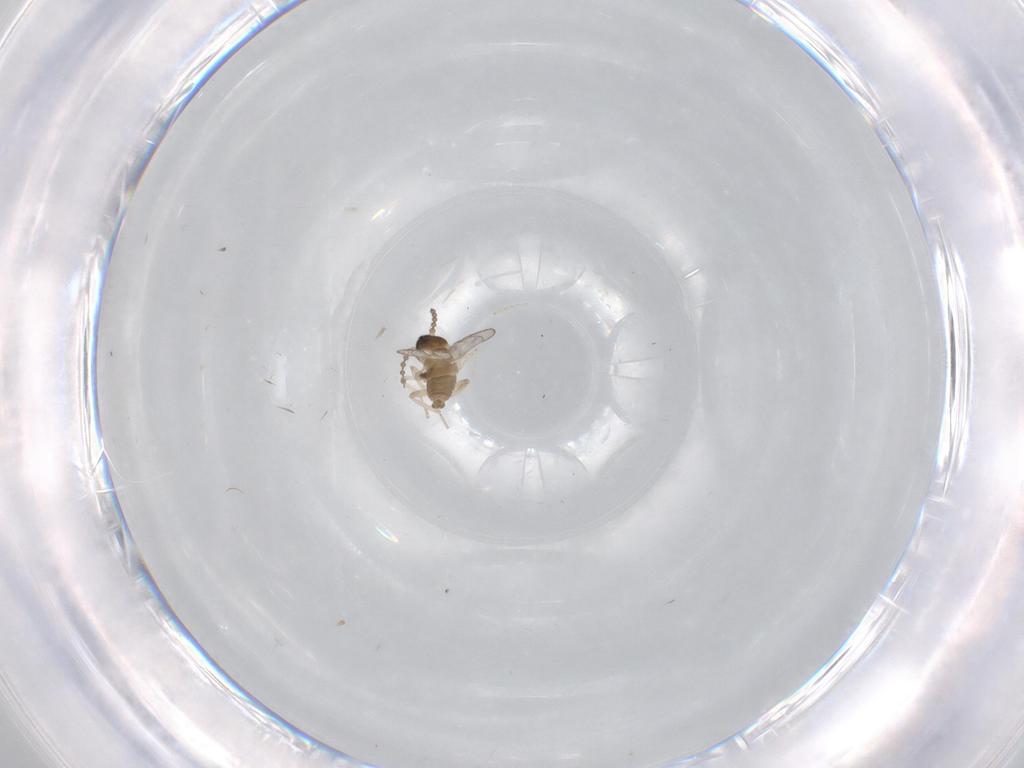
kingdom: Animalia
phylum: Arthropoda
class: Insecta
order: Diptera
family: Cecidomyiidae
